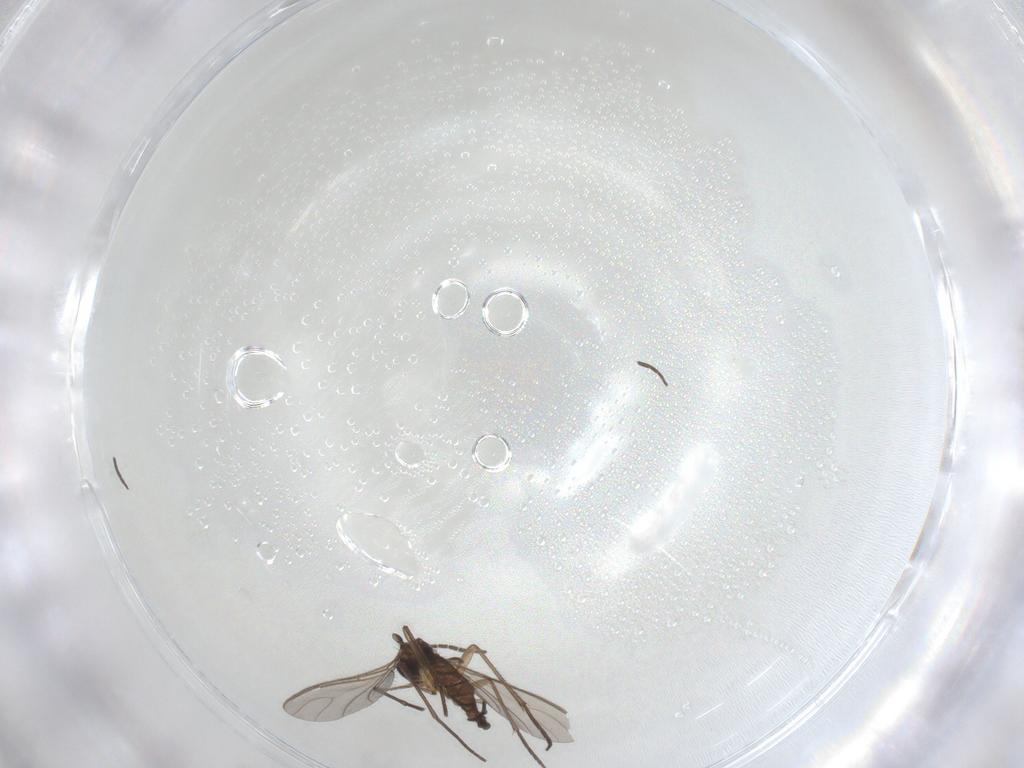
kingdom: Animalia
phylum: Arthropoda
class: Insecta
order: Diptera
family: Sciaridae
